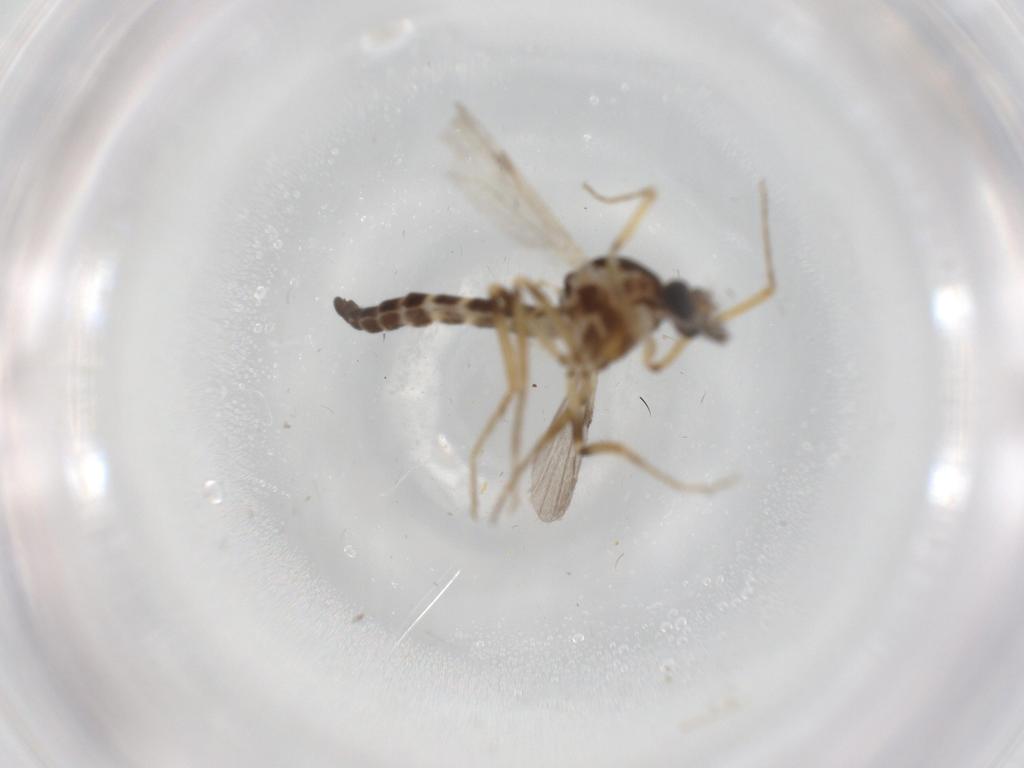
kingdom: Animalia
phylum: Arthropoda
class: Insecta
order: Diptera
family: Ceratopogonidae
